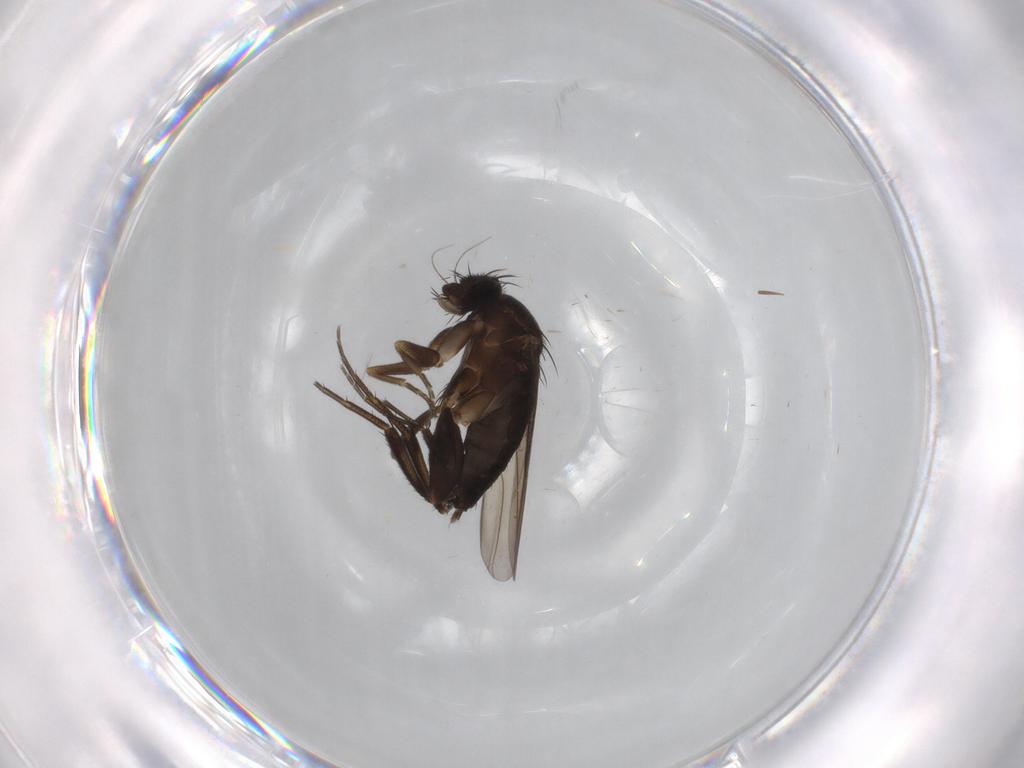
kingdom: Animalia
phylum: Arthropoda
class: Insecta
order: Diptera
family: Phoridae
